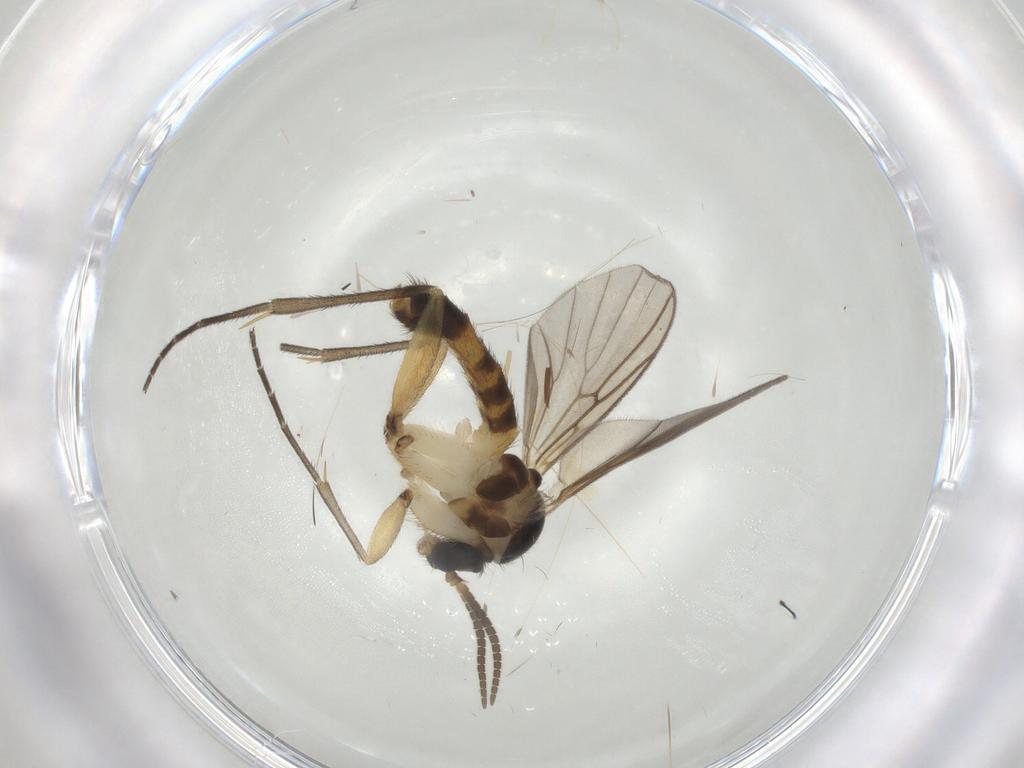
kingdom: Animalia
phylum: Arthropoda
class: Insecta
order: Diptera
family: Mycetophilidae
